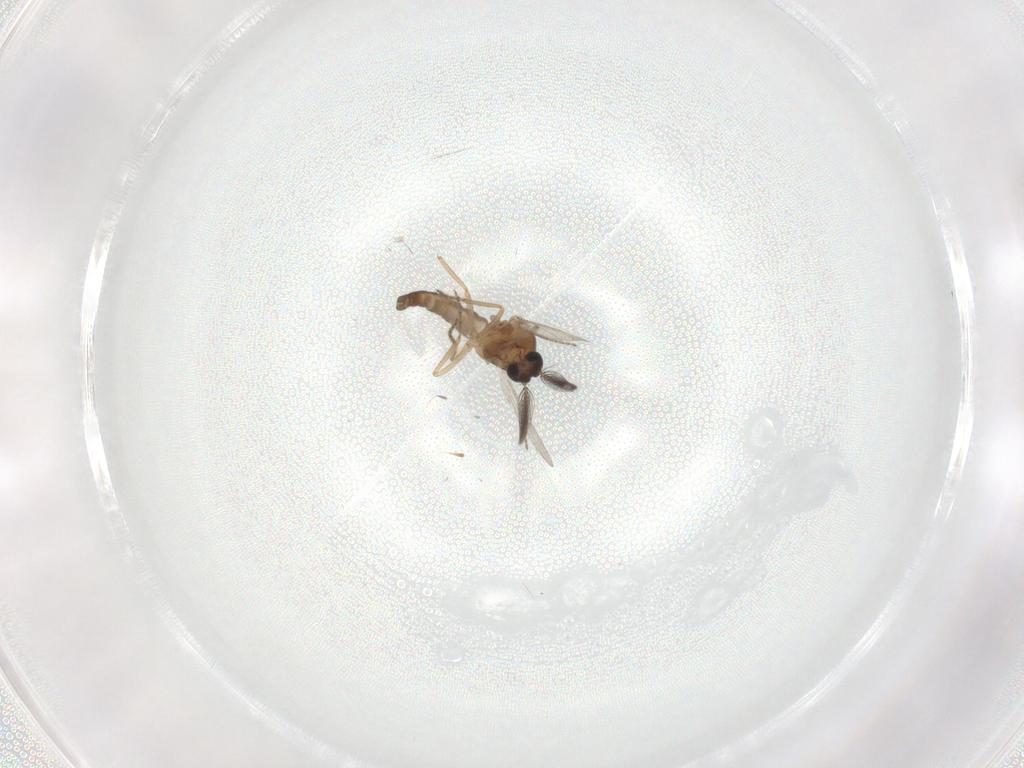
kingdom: Animalia
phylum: Arthropoda
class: Insecta
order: Diptera
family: Ceratopogonidae
